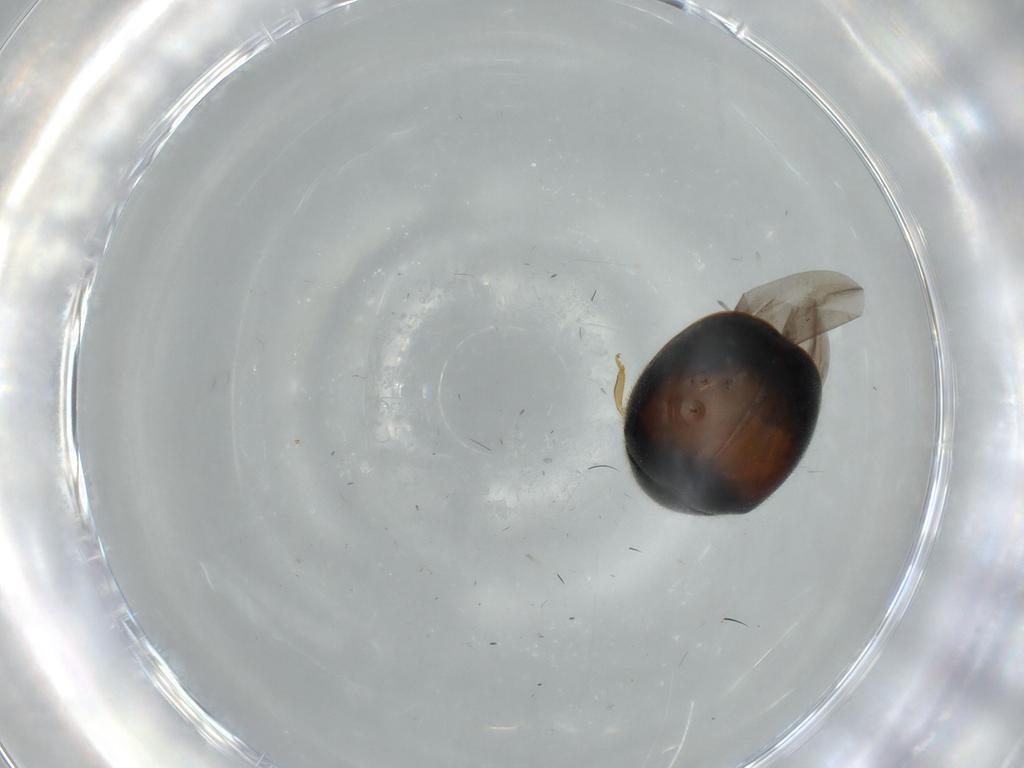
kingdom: Animalia
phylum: Arthropoda
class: Insecta
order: Coleoptera
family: Coccinellidae
